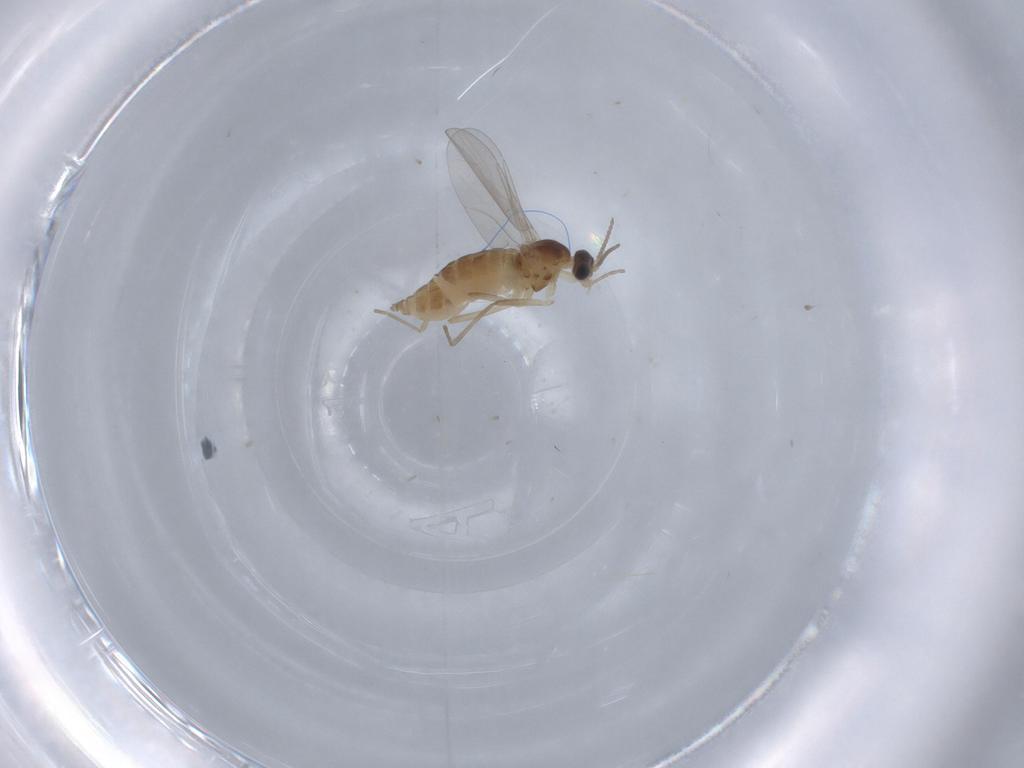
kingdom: Animalia
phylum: Arthropoda
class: Insecta
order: Diptera
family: Cecidomyiidae
